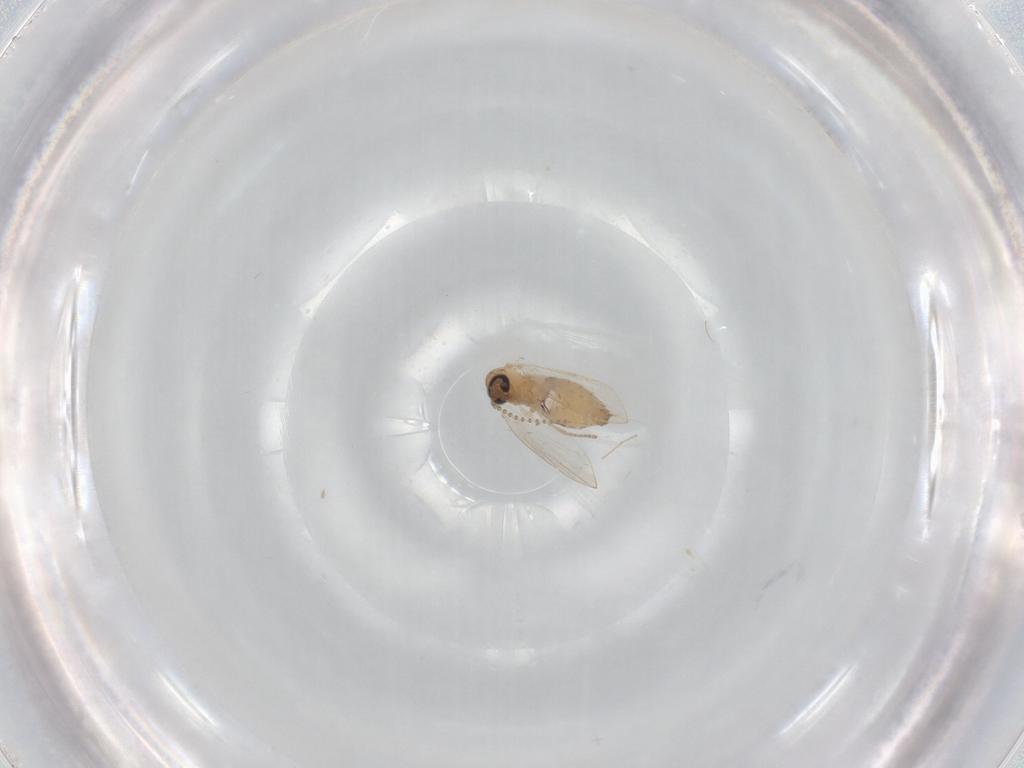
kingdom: Animalia
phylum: Arthropoda
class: Insecta
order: Diptera
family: Psychodidae
